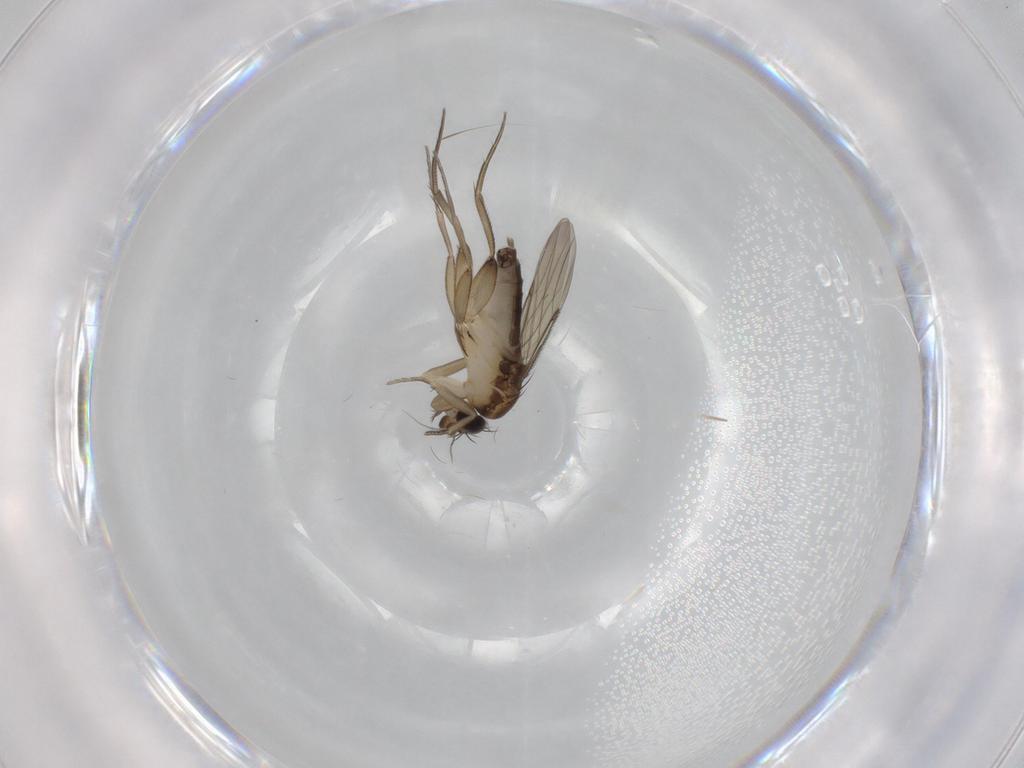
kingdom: Animalia
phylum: Arthropoda
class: Insecta
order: Diptera
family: Phoridae
